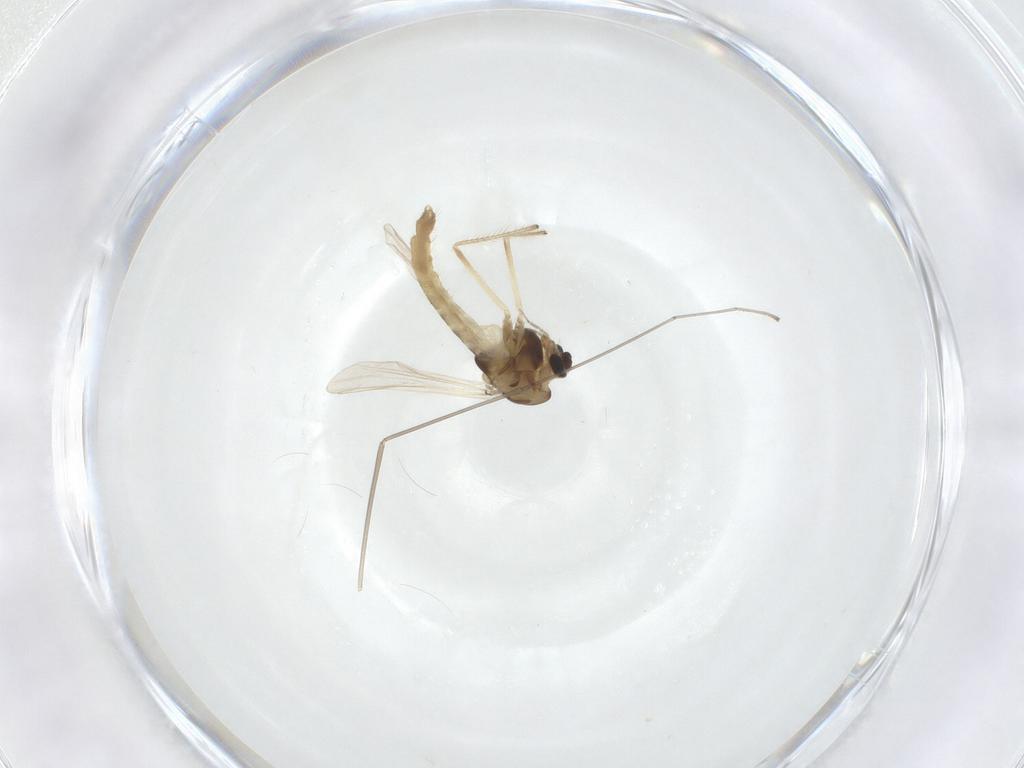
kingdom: Animalia
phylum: Arthropoda
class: Insecta
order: Diptera
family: Chironomidae
